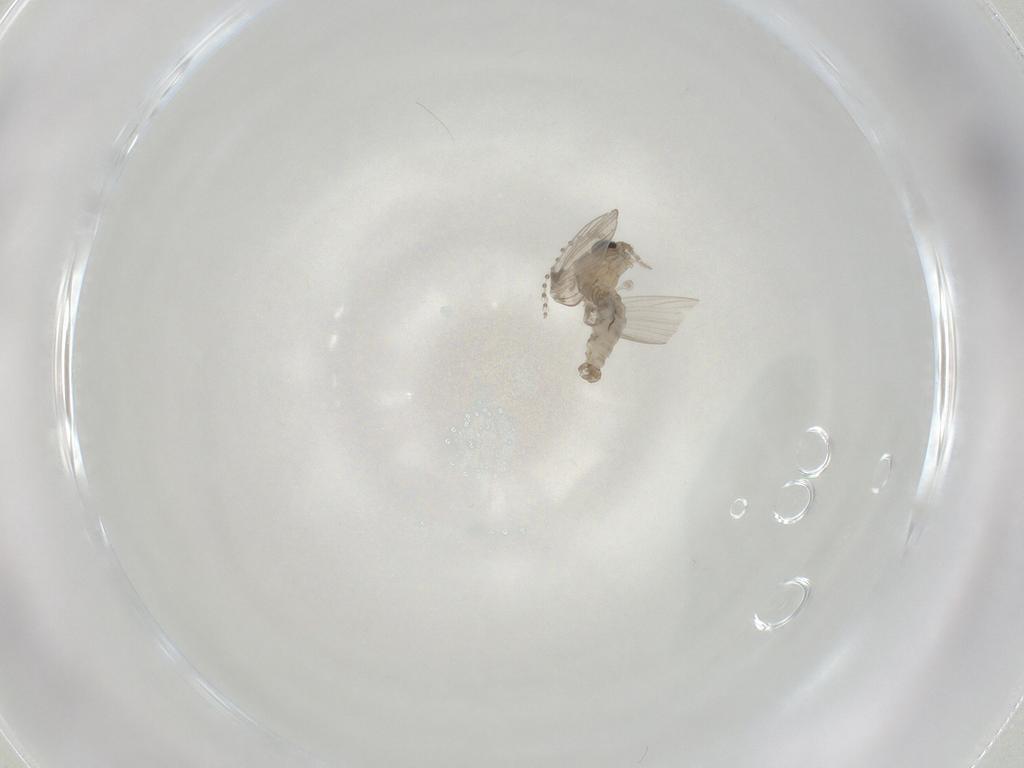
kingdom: Animalia
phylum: Arthropoda
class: Insecta
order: Diptera
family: Psychodidae
